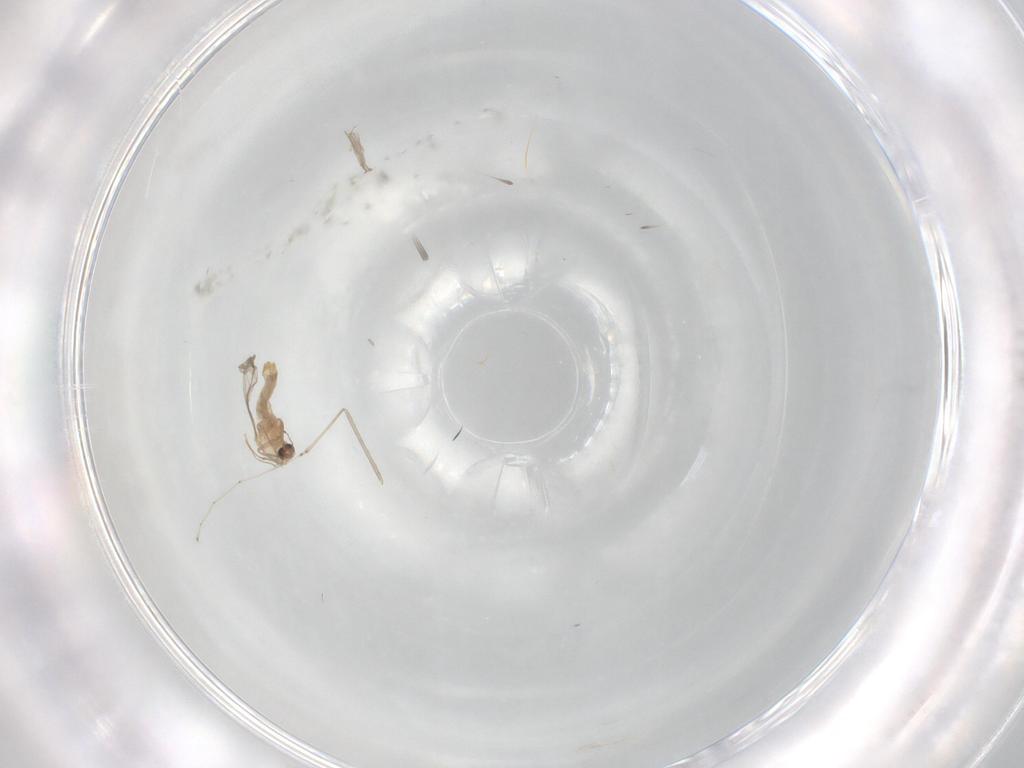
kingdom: Animalia
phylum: Arthropoda
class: Insecta
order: Diptera
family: Chironomidae
